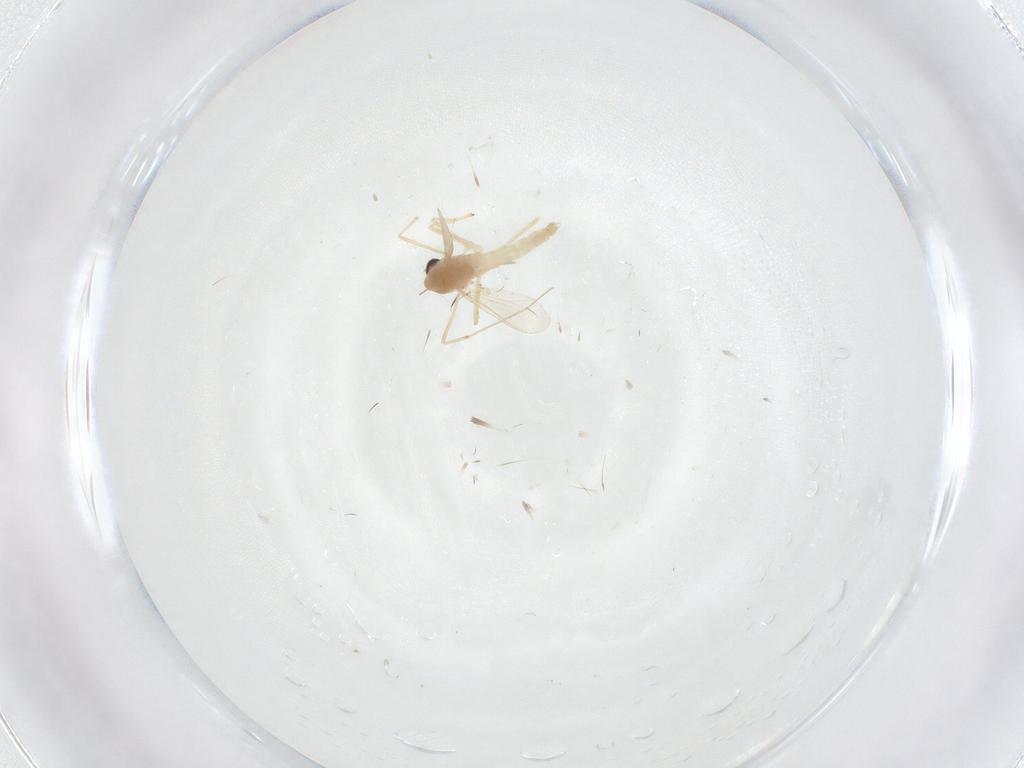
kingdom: Animalia
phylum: Arthropoda
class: Insecta
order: Diptera
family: Chironomidae
